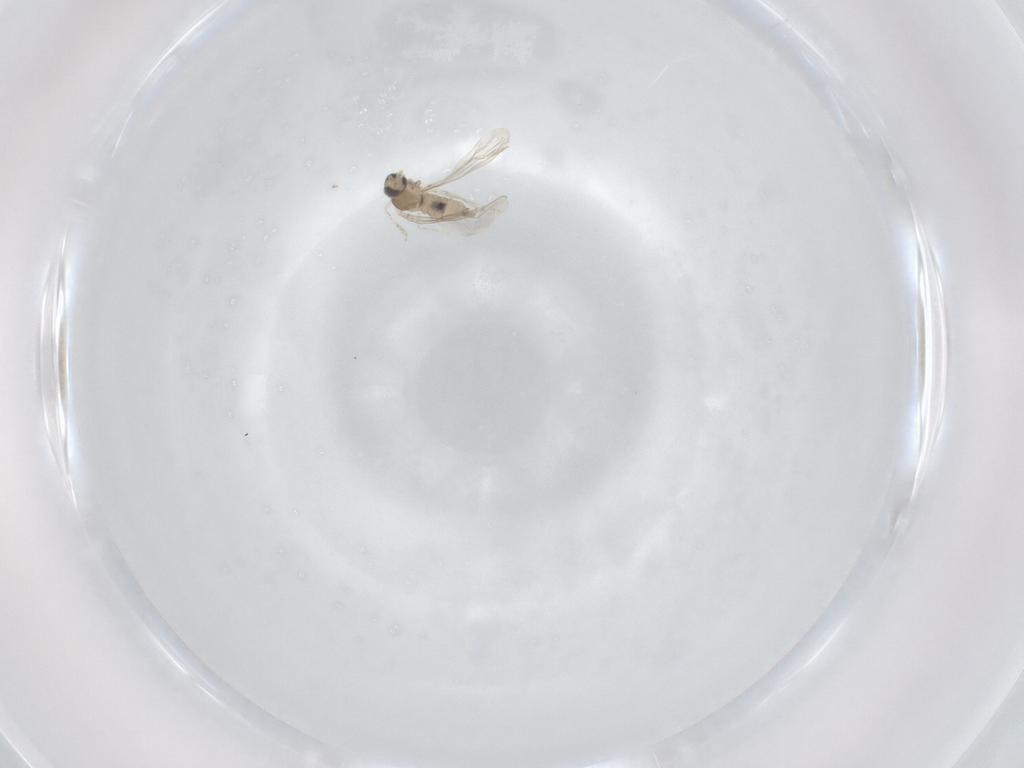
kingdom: Animalia
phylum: Arthropoda
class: Insecta
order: Diptera
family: Cecidomyiidae
